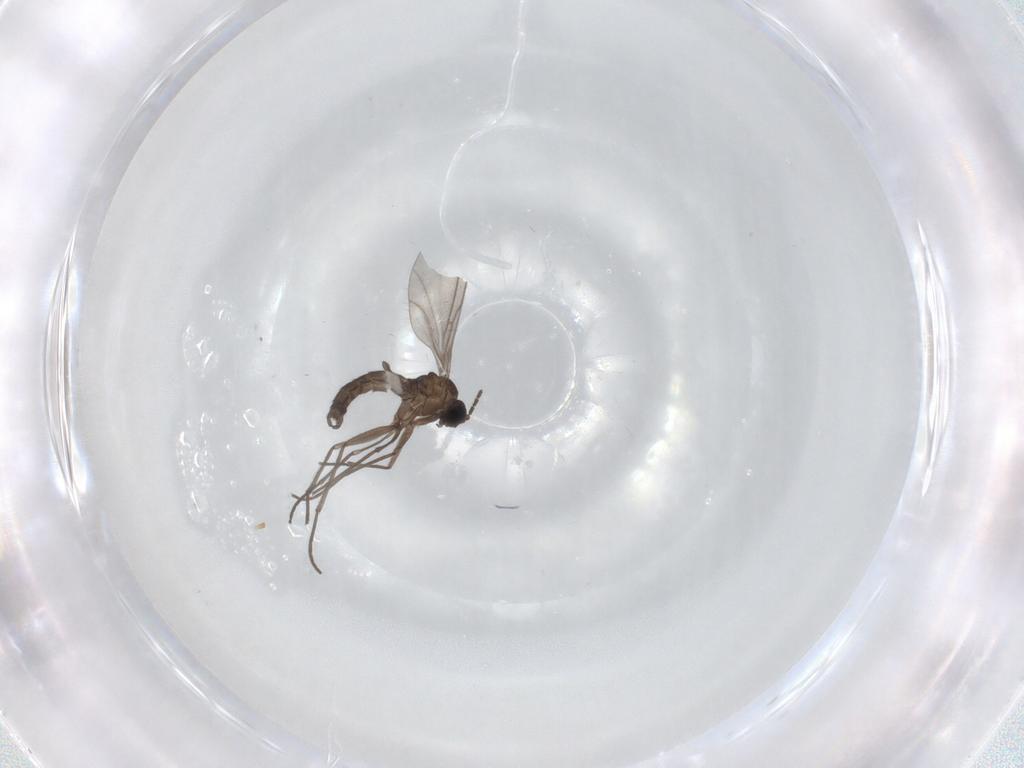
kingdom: Animalia
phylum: Arthropoda
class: Insecta
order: Diptera
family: Sciaridae
